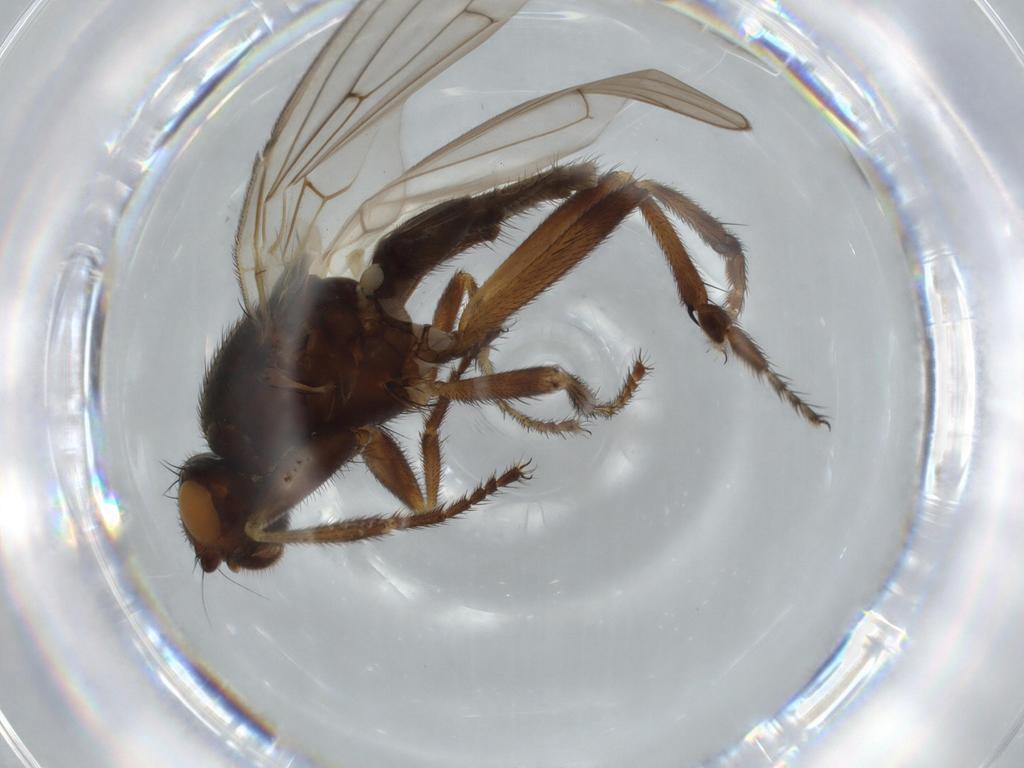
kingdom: Animalia
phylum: Arthropoda
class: Insecta
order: Diptera
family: Sphaeroceridae
